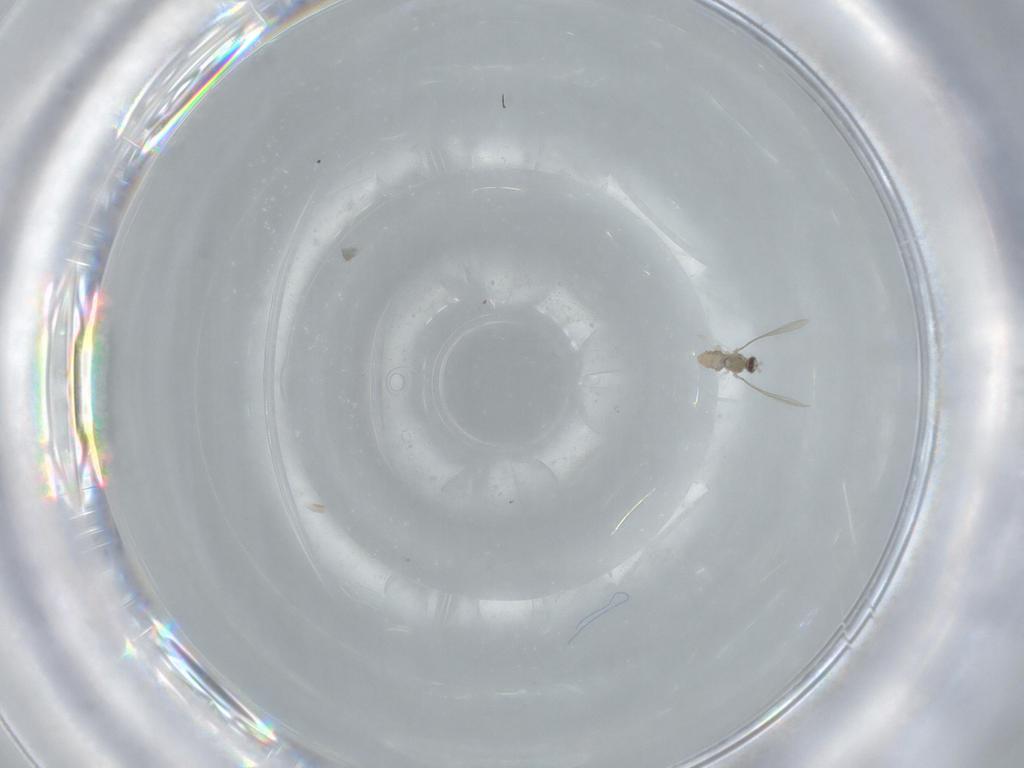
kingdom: Animalia
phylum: Arthropoda
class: Insecta
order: Diptera
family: Cecidomyiidae
